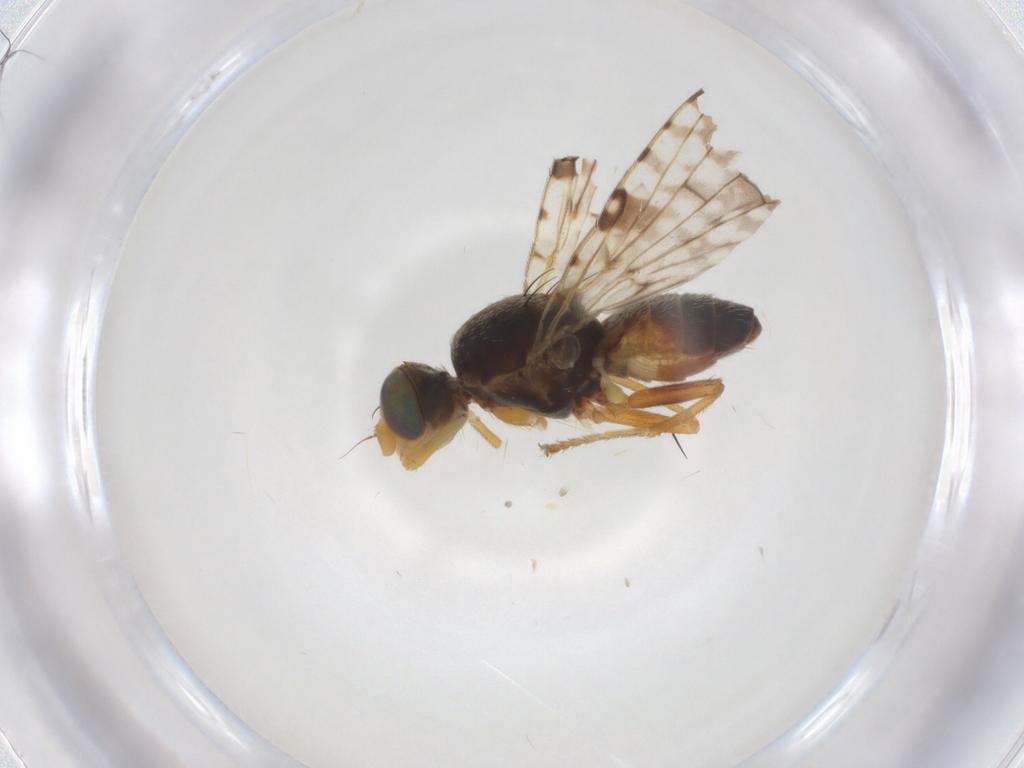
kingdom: Animalia
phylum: Arthropoda
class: Insecta
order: Diptera
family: Tephritidae
